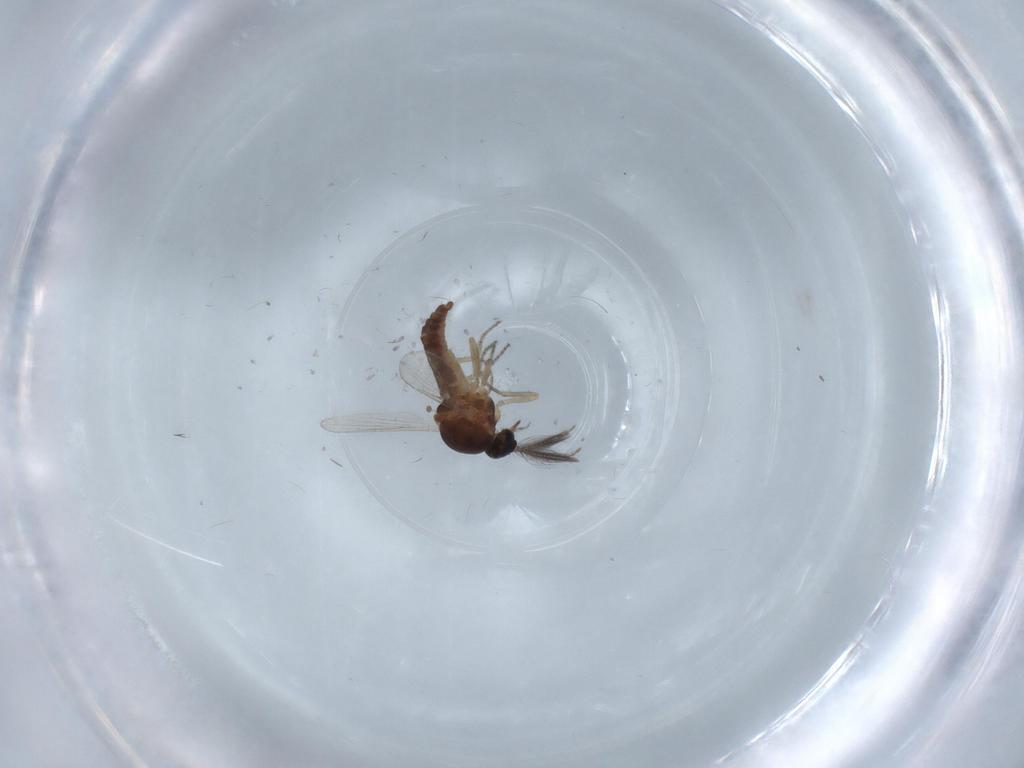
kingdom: Animalia
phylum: Arthropoda
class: Insecta
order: Diptera
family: Ceratopogonidae
